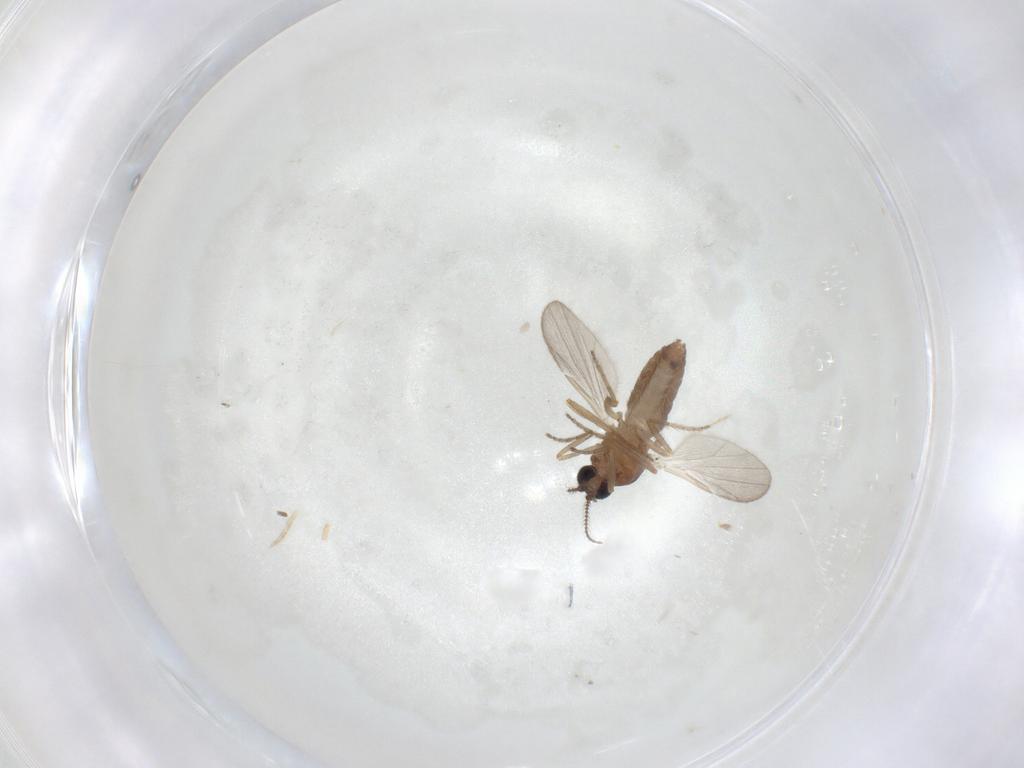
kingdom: Animalia
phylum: Arthropoda
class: Insecta
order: Diptera
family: Ceratopogonidae
